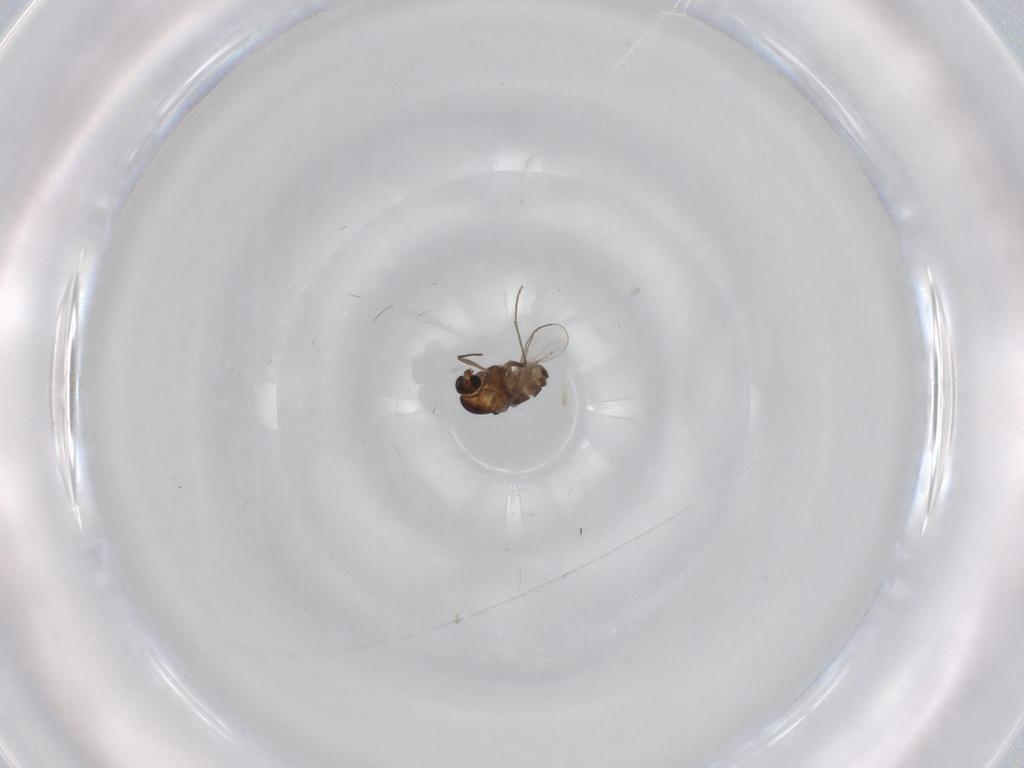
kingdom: Animalia
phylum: Arthropoda
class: Insecta
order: Diptera
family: Chironomidae
